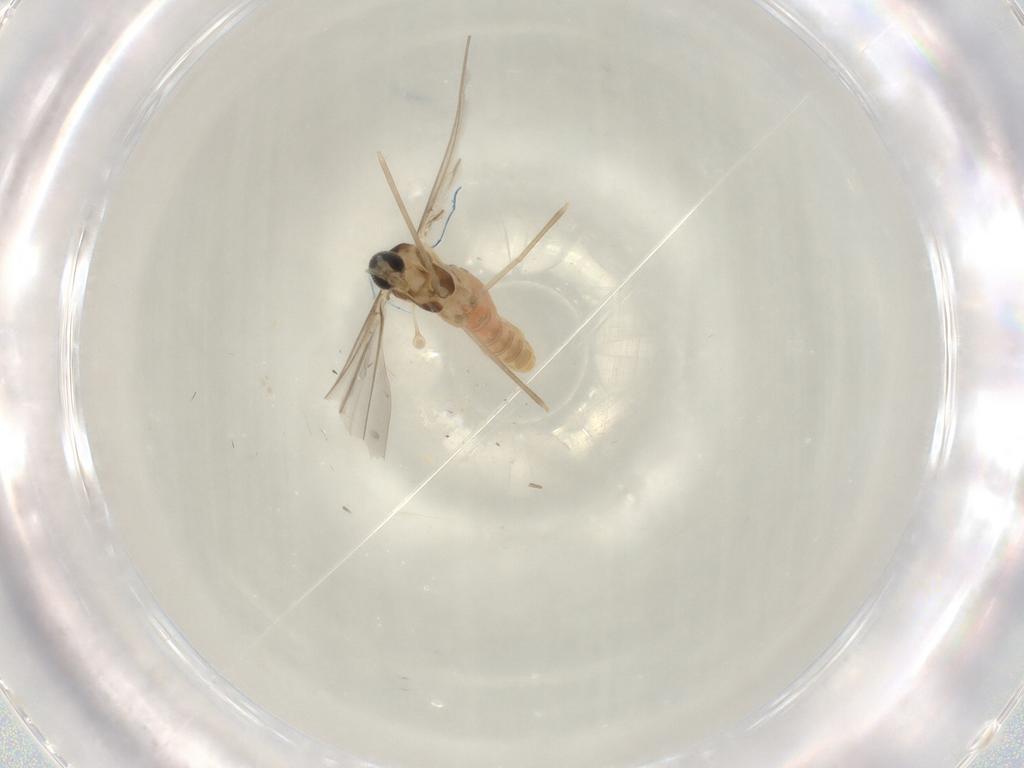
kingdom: Animalia
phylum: Arthropoda
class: Insecta
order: Diptera
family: Cecidomyiidae
